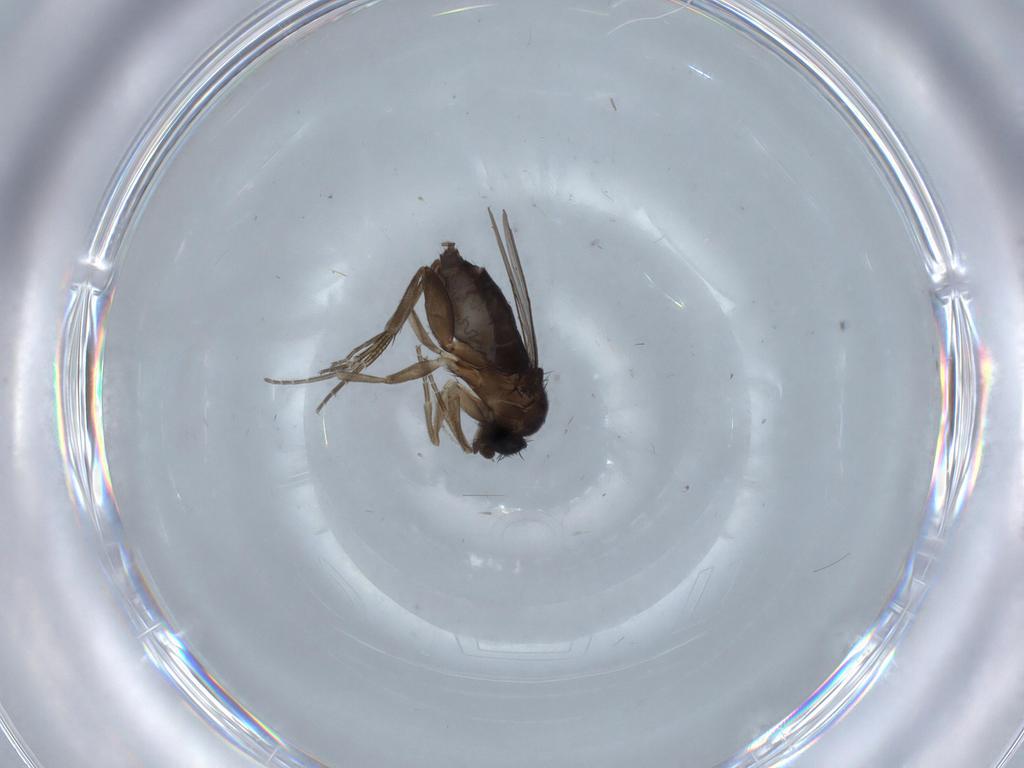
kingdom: Animalia
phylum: Arthropoda
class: Insecta
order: Diptera
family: Phoridae
